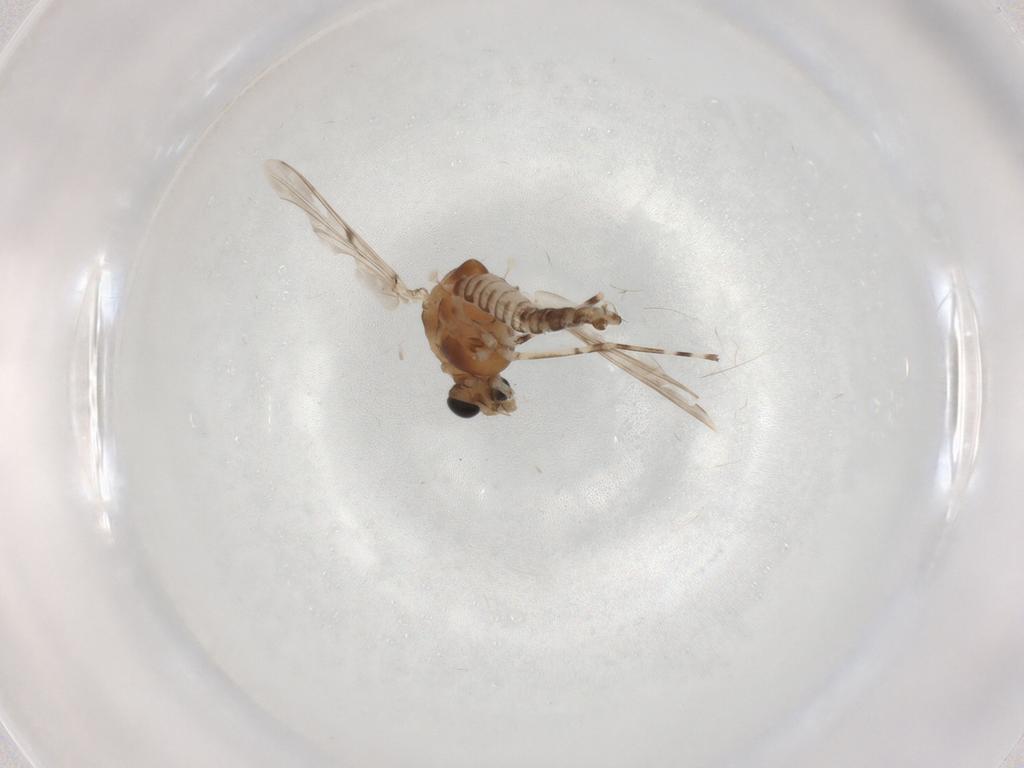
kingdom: Animalia
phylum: Arthropoda
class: Insecta
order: Diptera
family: Chironomidae
